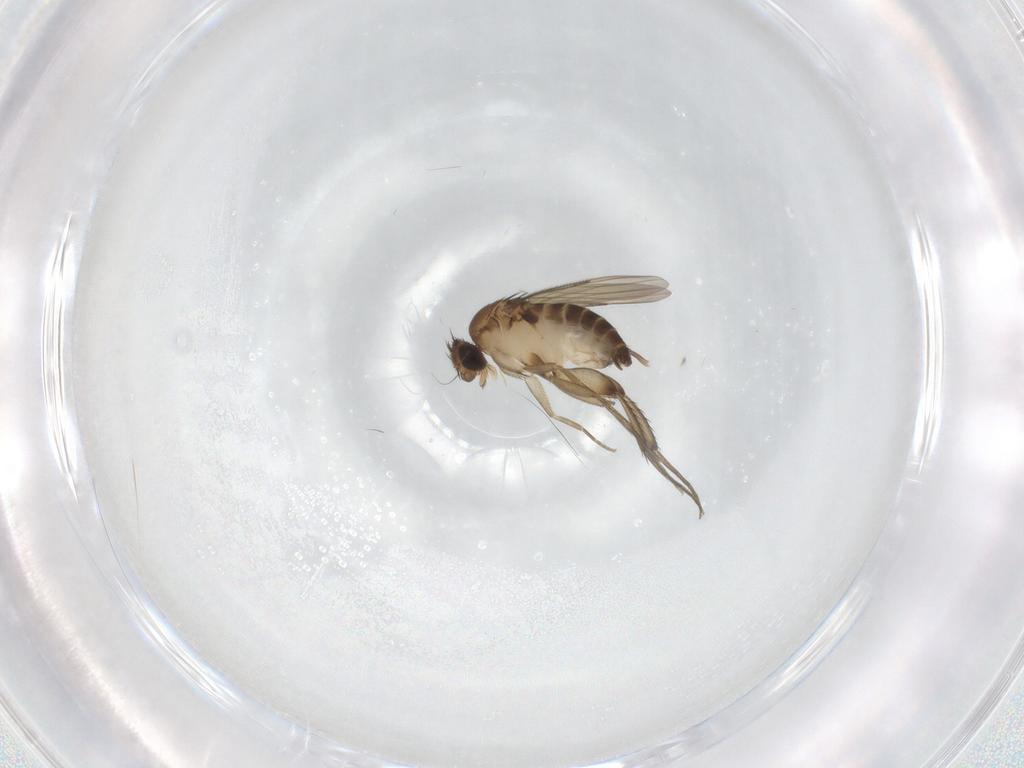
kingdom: Animalia
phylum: Arthropoda
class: Insecta
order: Diptera
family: Phoridae
